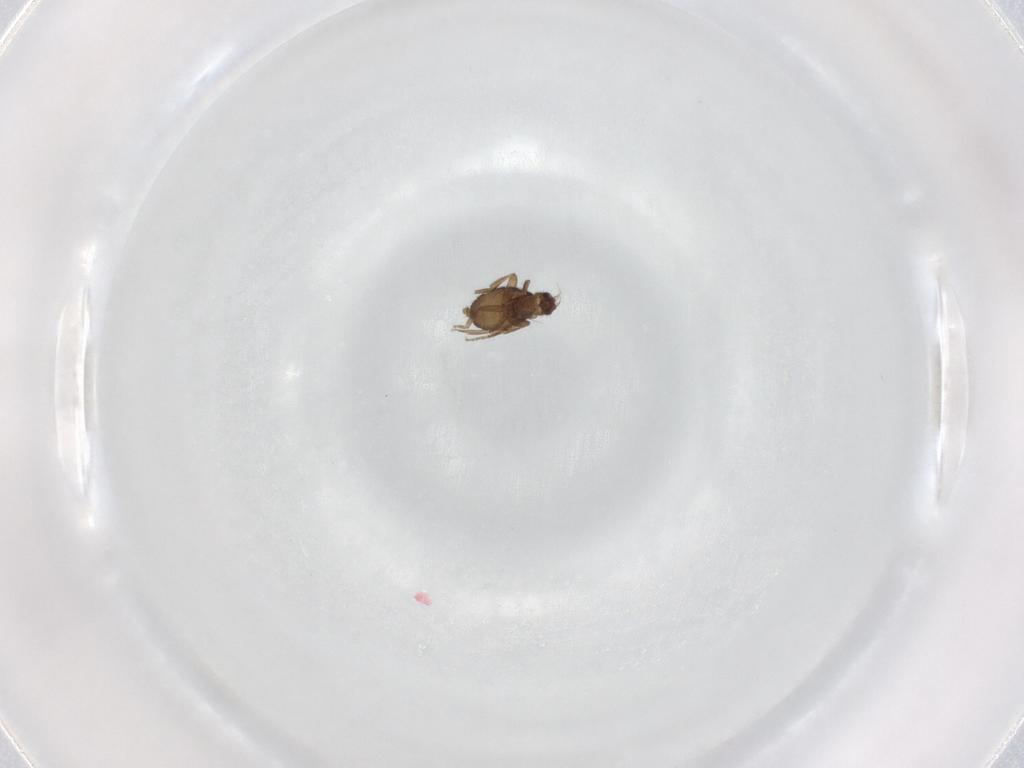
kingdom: Animalia
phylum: Arthropoda
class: Insecta
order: Diptera
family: Phoridae
